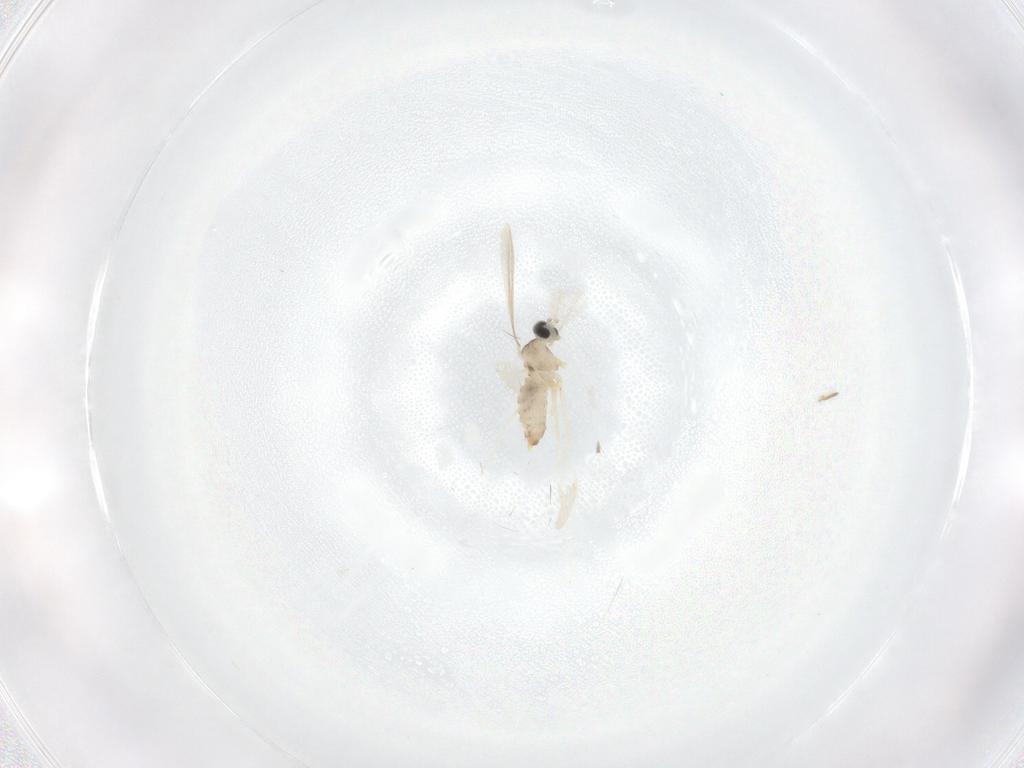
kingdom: Animalia
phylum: Arthropoda
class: Insecta
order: Diptera
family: Cecidomyiidae
